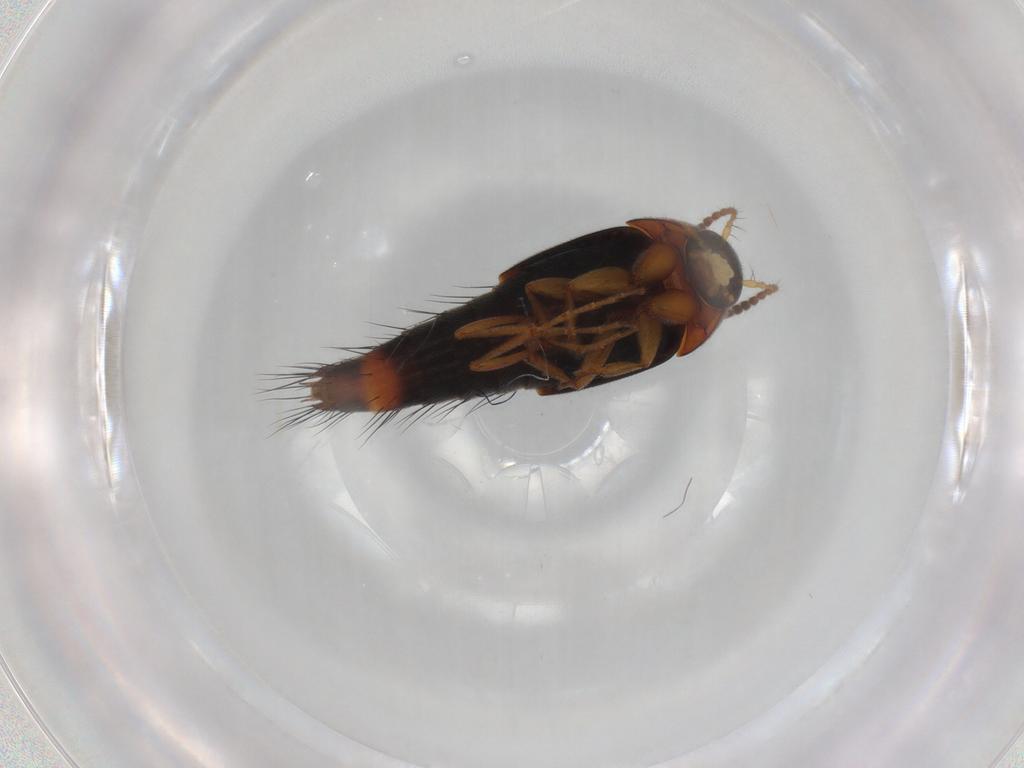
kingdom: Animalia
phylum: Arthropoda
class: Insecta
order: Coleoptera
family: Staphylinidae
